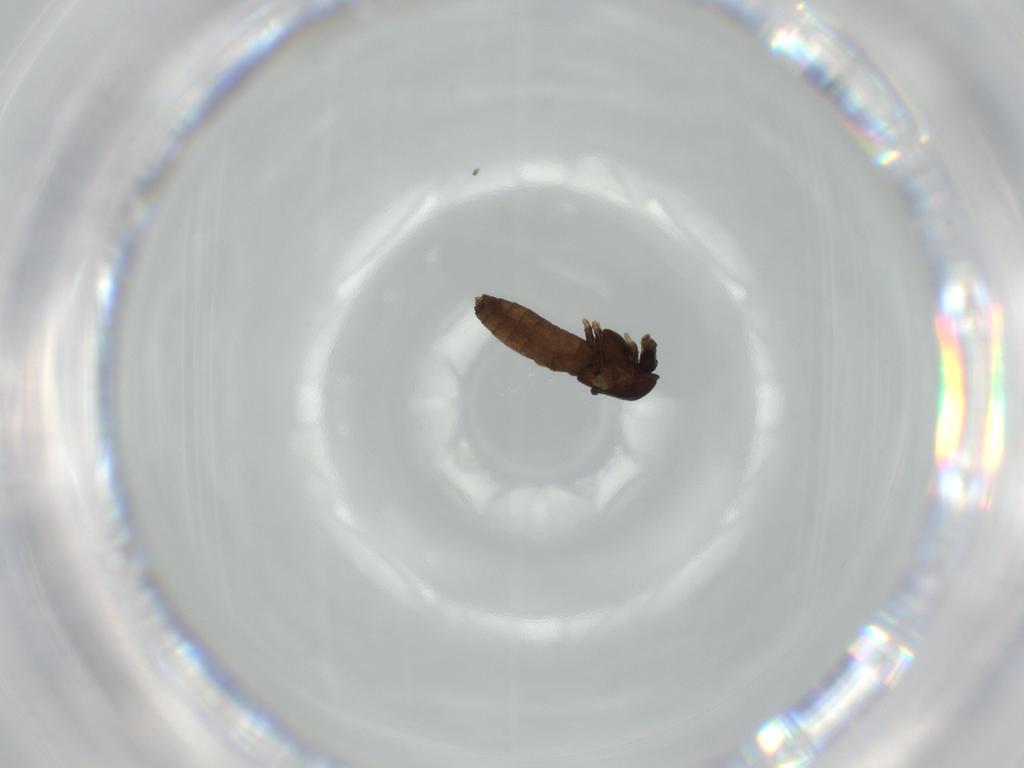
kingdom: Animalia
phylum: Arthropoda
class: Insecta
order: Diptera
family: Chironomidae
